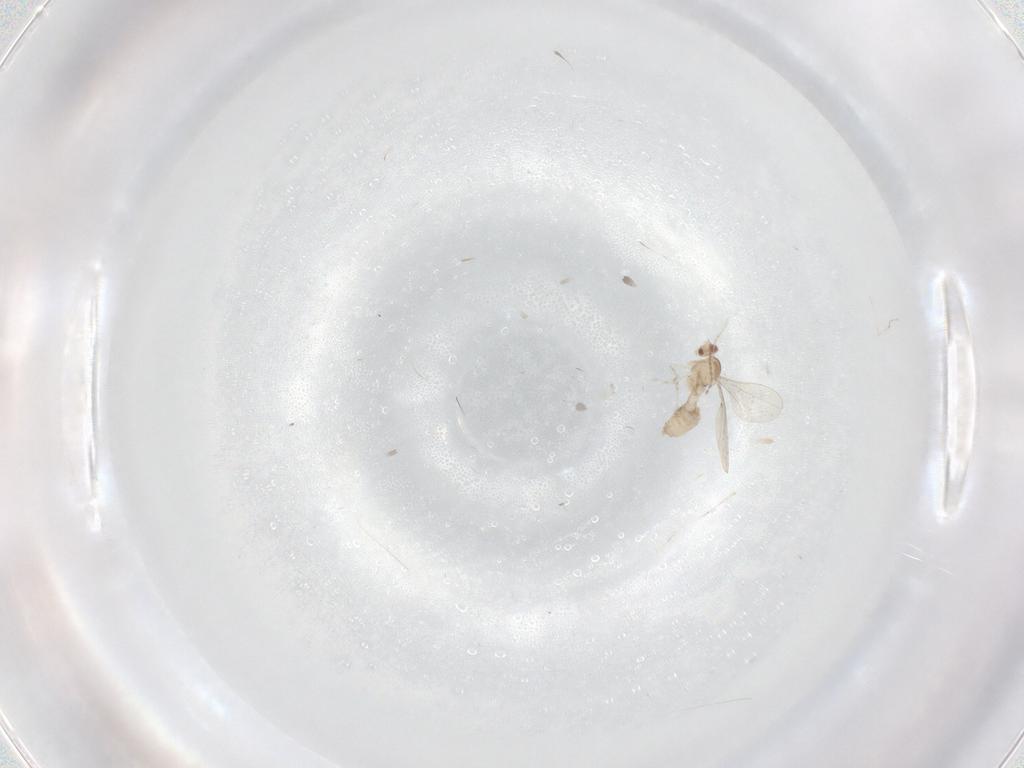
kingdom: Animalia
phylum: Arthropoda
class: Insecta
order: Diptera
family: Cecidomyiidae
